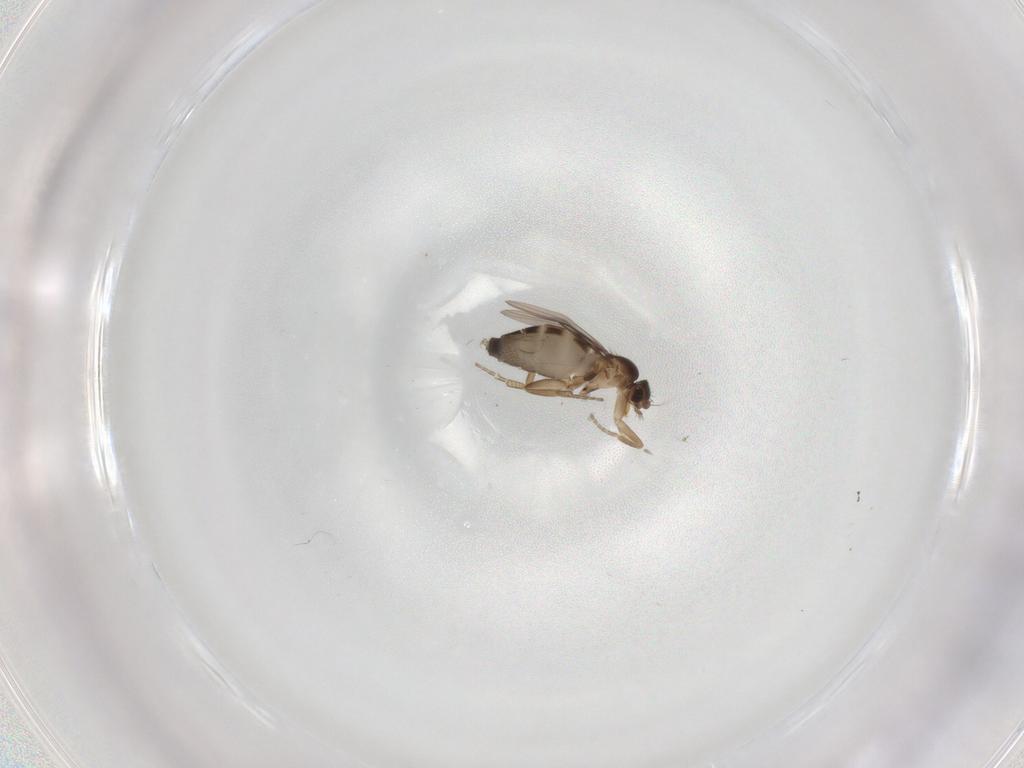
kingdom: Animalia
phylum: Arthropoda
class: Insecta
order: Diptera
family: Phoridae
